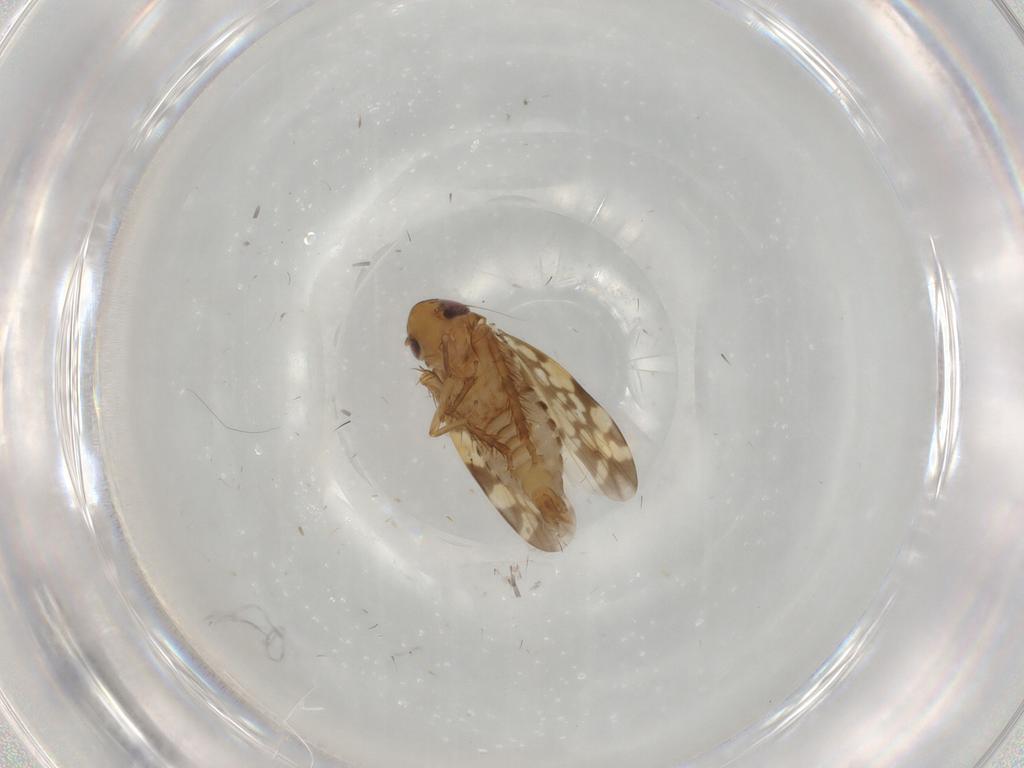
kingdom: Animalia
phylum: Arthropoda
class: Insecta
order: Hemiptera
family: Cicadellidae
